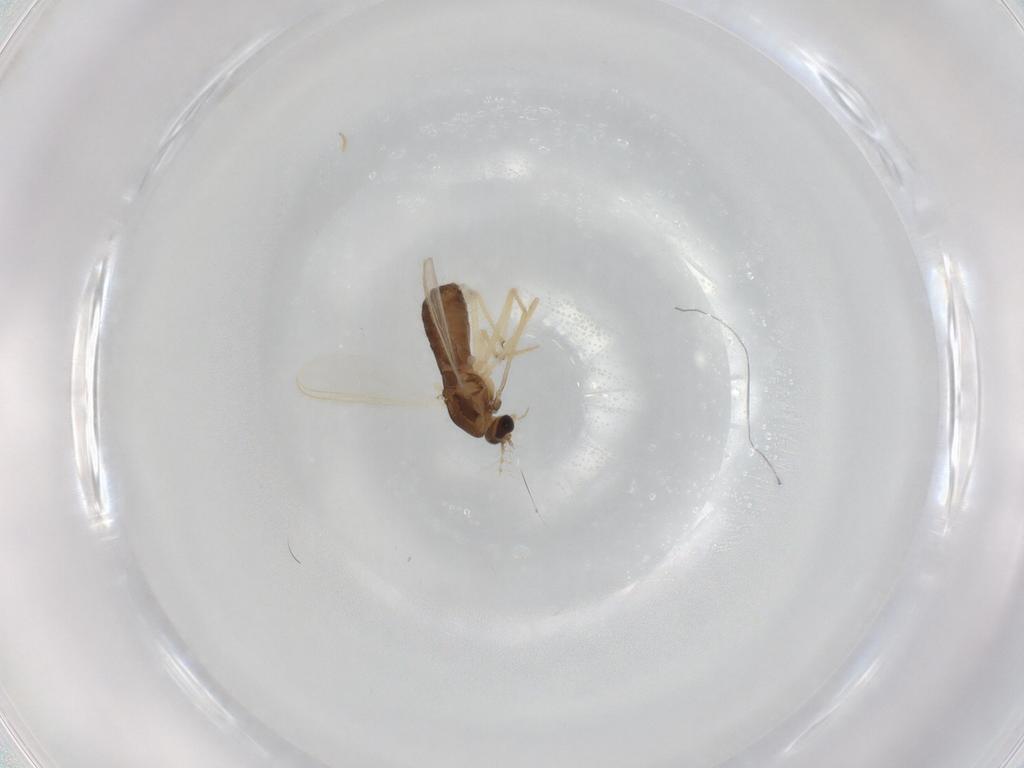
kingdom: Animalia
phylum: Arthropoda
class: Insecta
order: Diptera
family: Chironomidae
